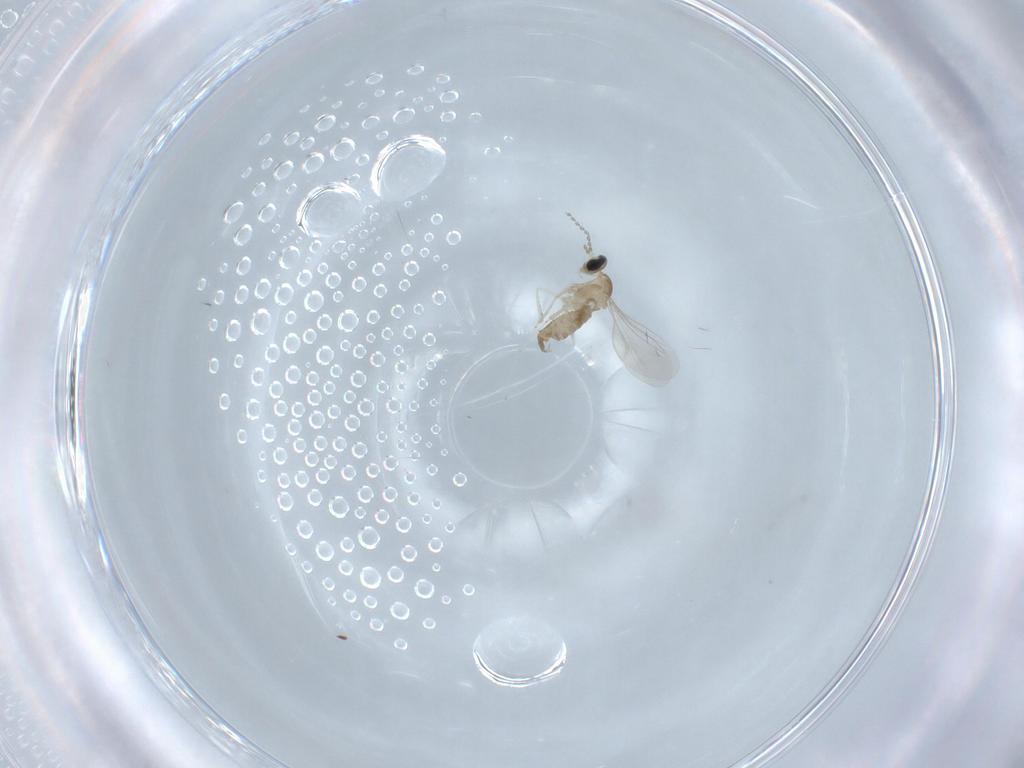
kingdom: Animalia
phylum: Arthropoda
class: Insecta
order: Diptera
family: Cecidomyiidae
